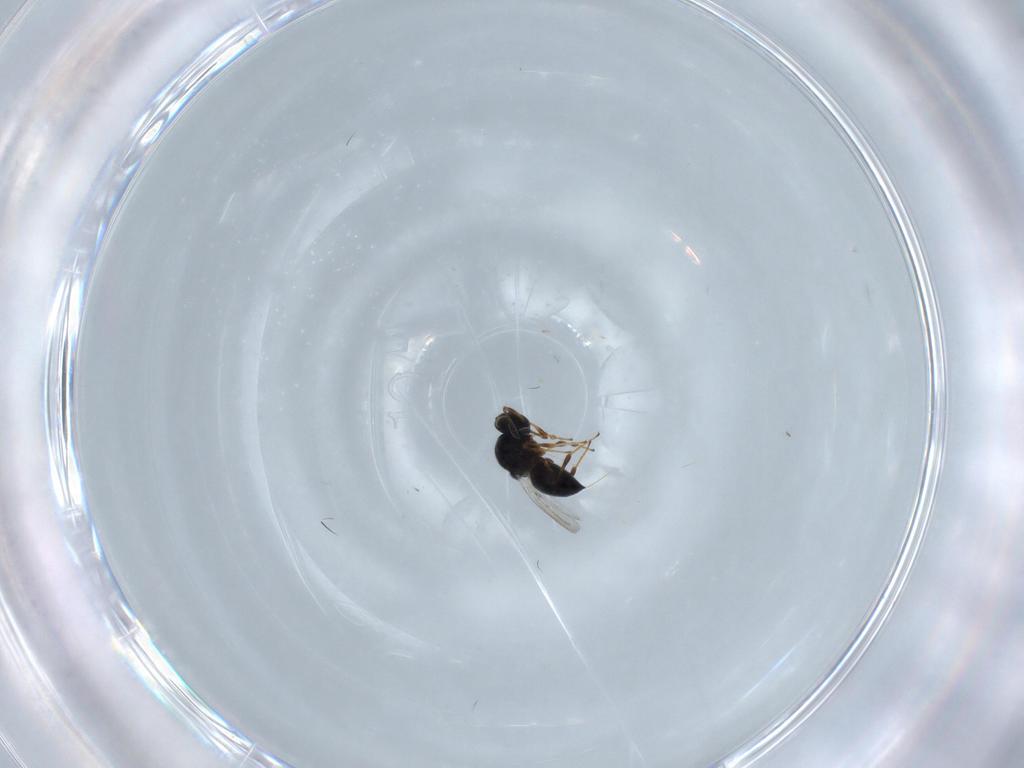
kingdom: Animalia
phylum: Arthropoda
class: Insecta
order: Hymenoptera
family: Platygastridae
